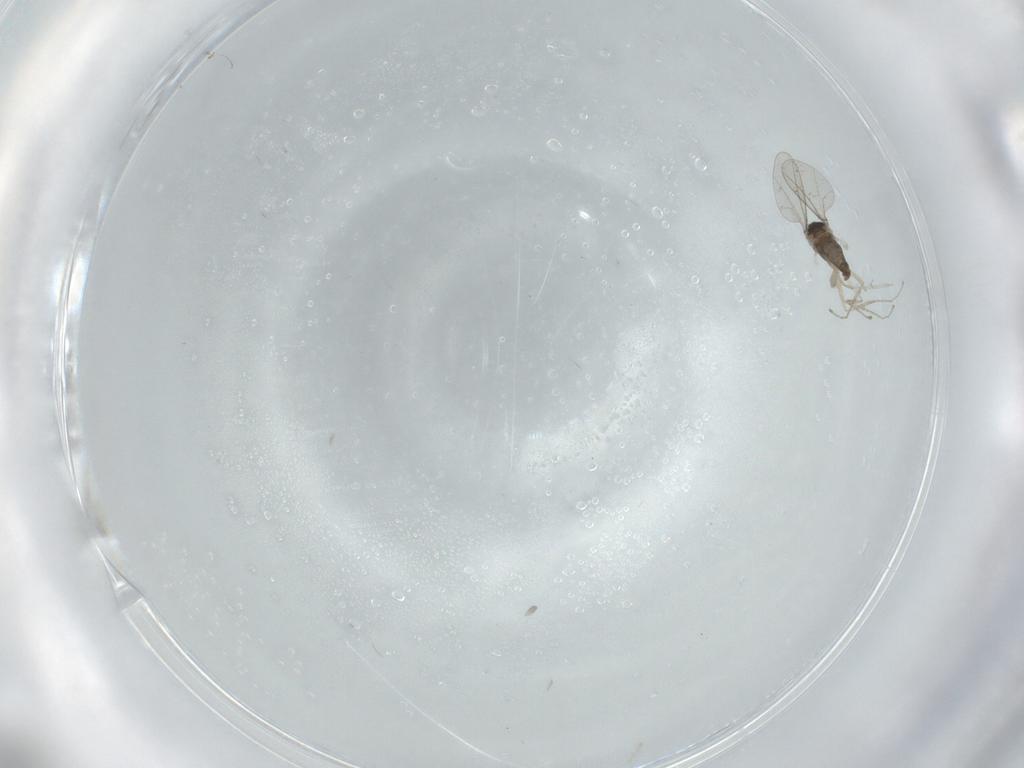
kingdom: Animalia
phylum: Arthropoda
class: Insecta
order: Diptera
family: Cecidomyiidae
